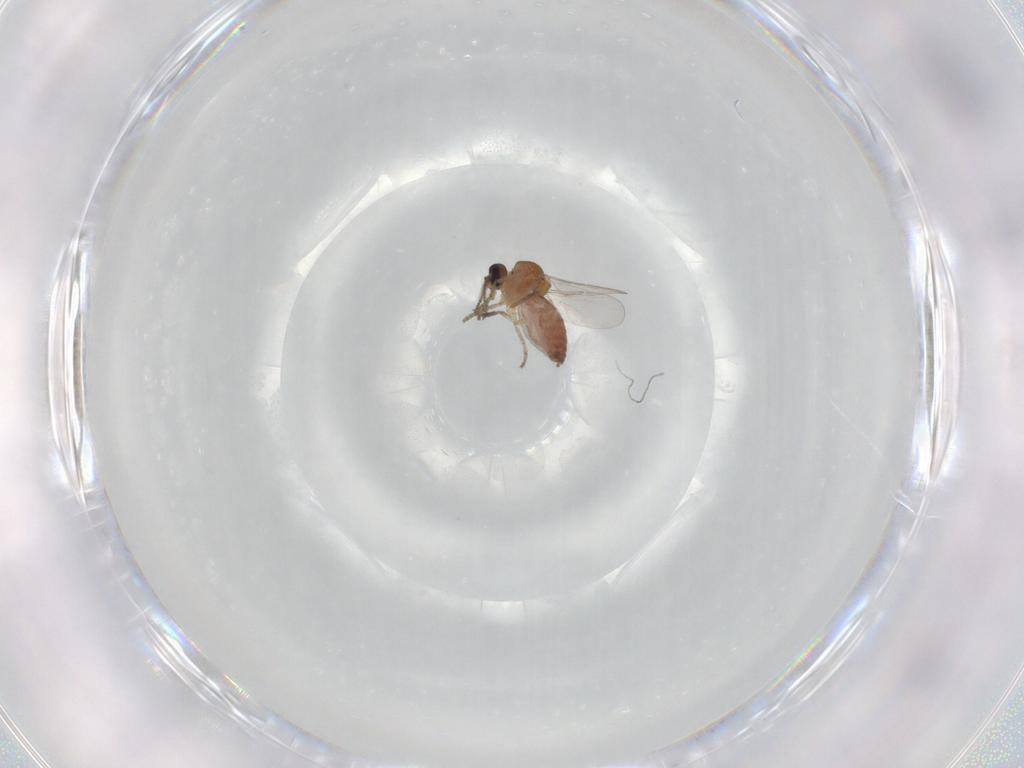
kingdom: Animalia
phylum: Arthropoda
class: Insecta
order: Diptera
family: Ceratopogonidae
